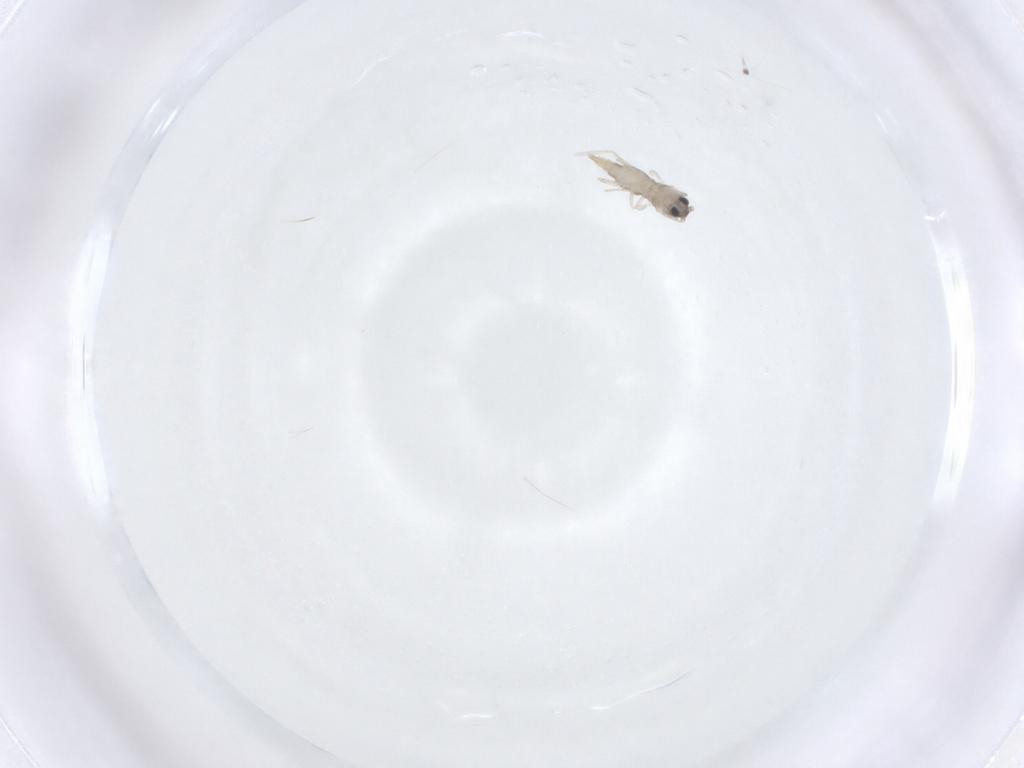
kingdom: Animalia
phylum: Arthropoda
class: Insecta
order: Diptera
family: Cecidomyiidae
